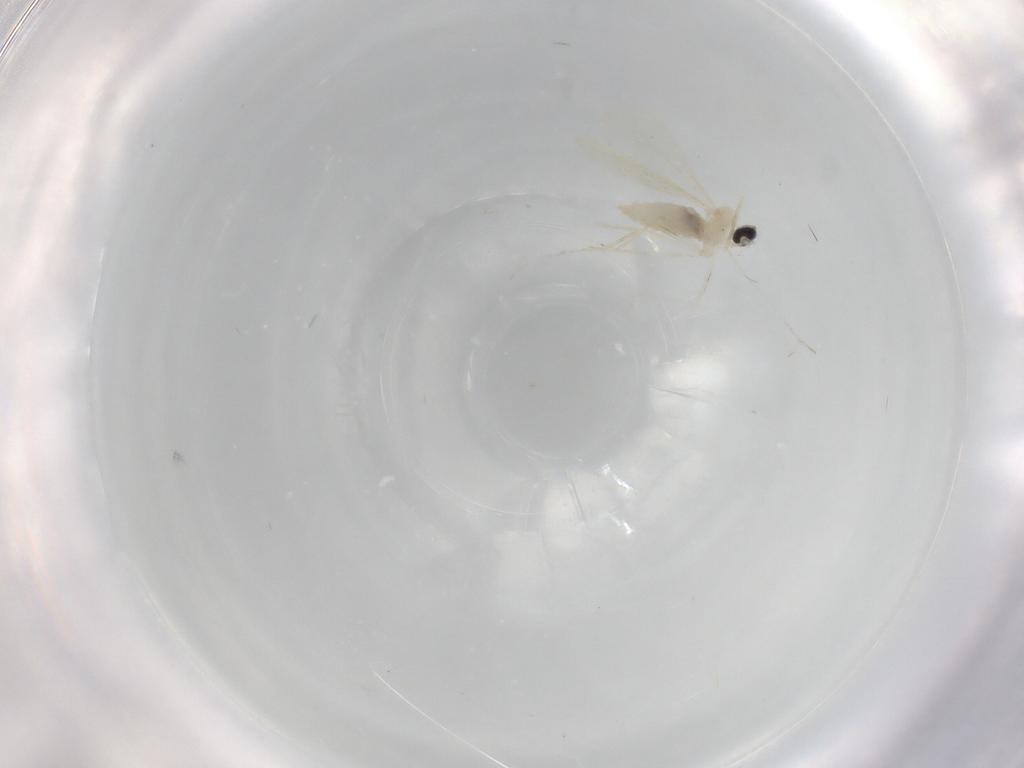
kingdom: Animalia
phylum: Arthropoda
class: Insecta
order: Diptera
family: Cecidomyiidae
